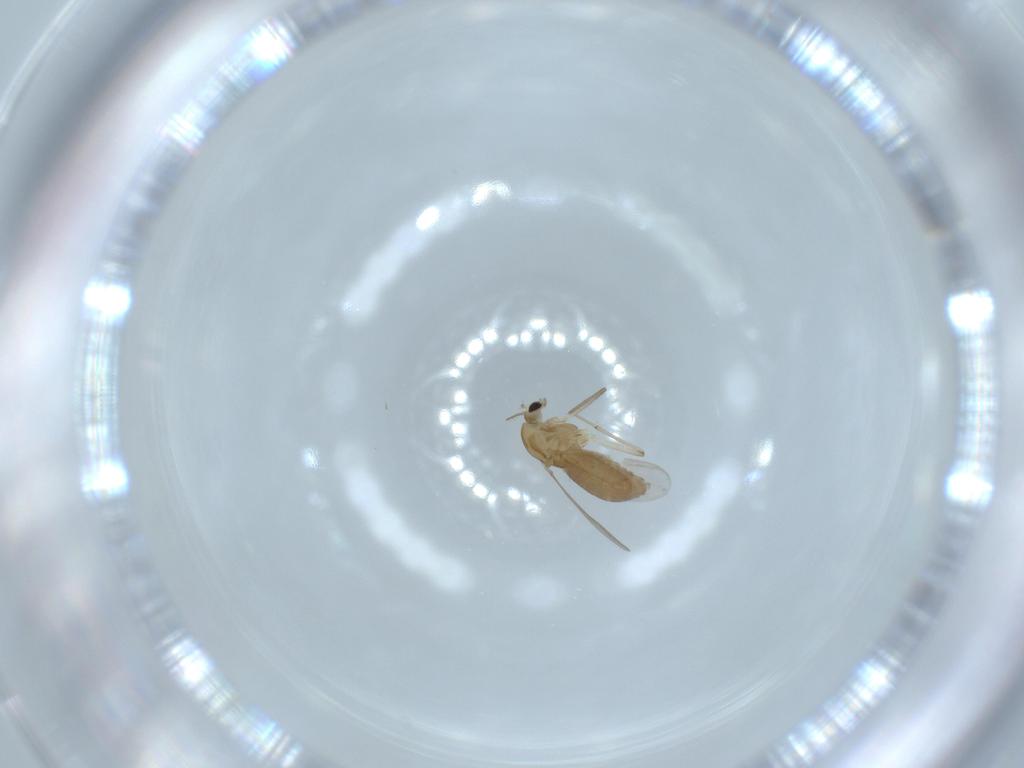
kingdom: Animalia
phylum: Arthropoda
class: Insecta
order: Diptera
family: Chironomidae
